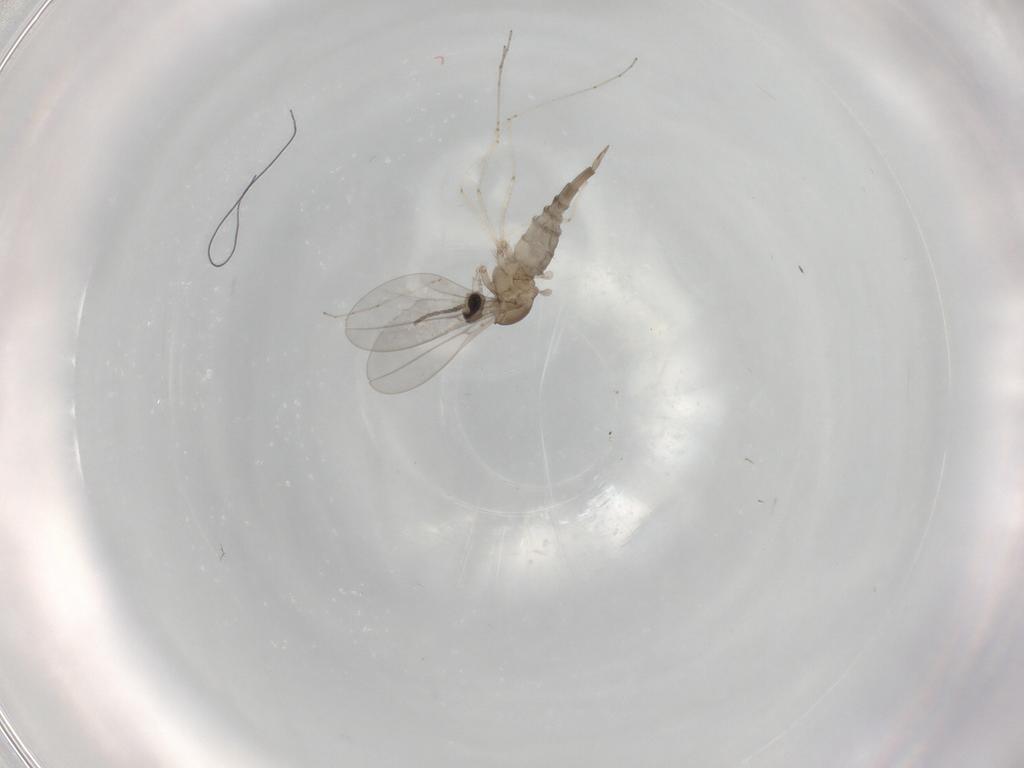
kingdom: Animalia
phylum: Arthropoda
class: Insecta
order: Diptera
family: Cecidomyiidae
